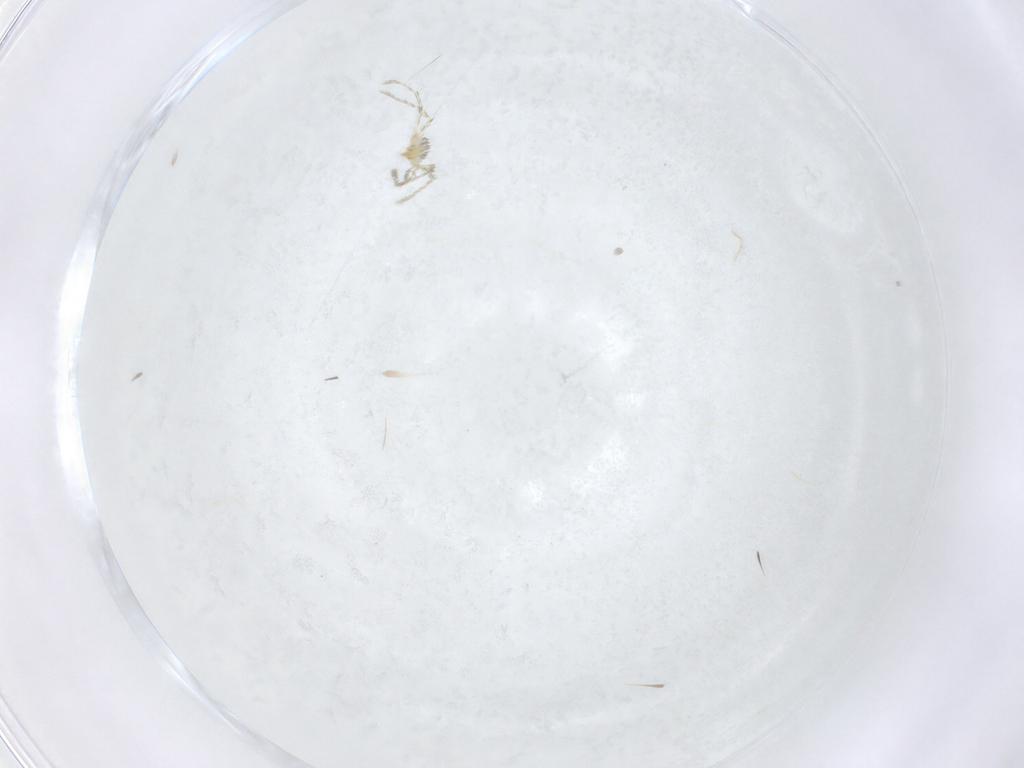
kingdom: Animalia
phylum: Arthropoda
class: Arachnida
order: Trombidiformes
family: Erythraeidae
